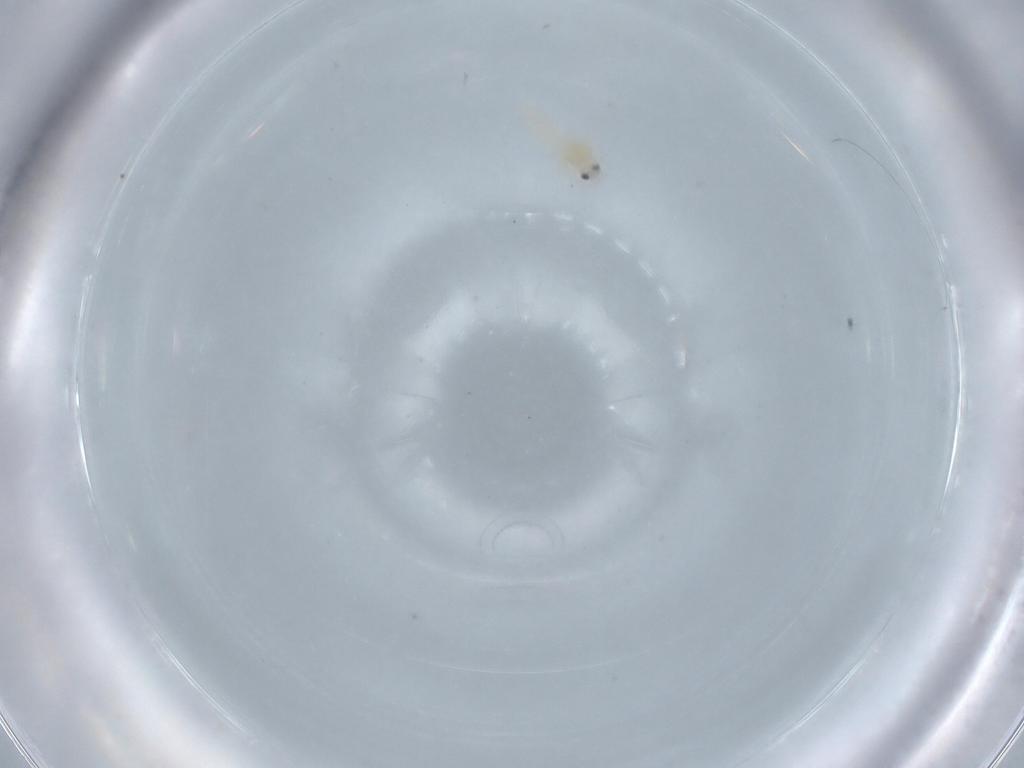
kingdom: Animalia
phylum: Arthropoda
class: Insecta
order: Hemiptera
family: Aleyrodidae
